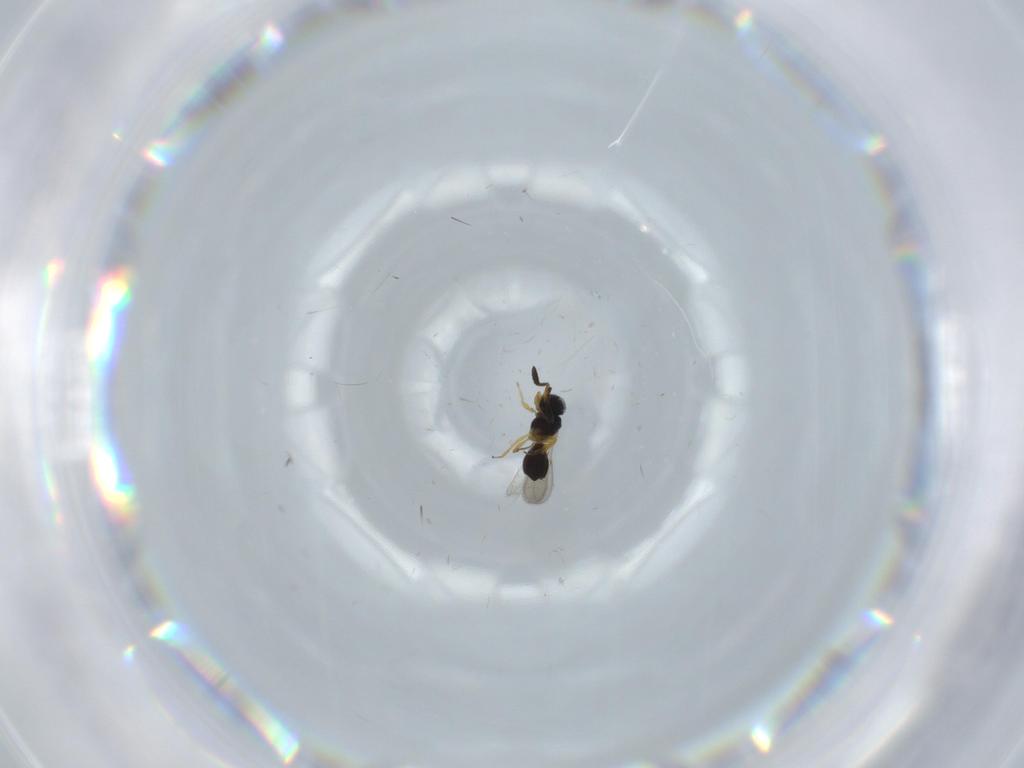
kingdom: Animalia
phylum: Arthropoda
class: Insecta
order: Hymenoptera
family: Scelionidae
